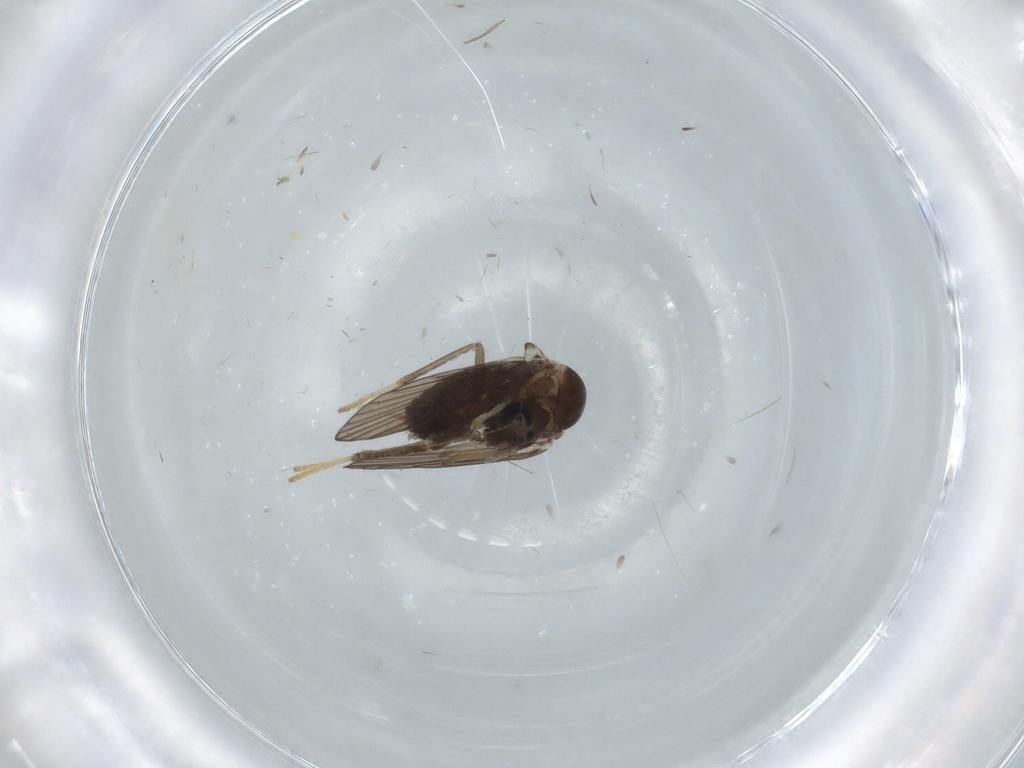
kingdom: Animalia
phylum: Arthropoda
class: Insecta
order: Diptera
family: Psychodidae
